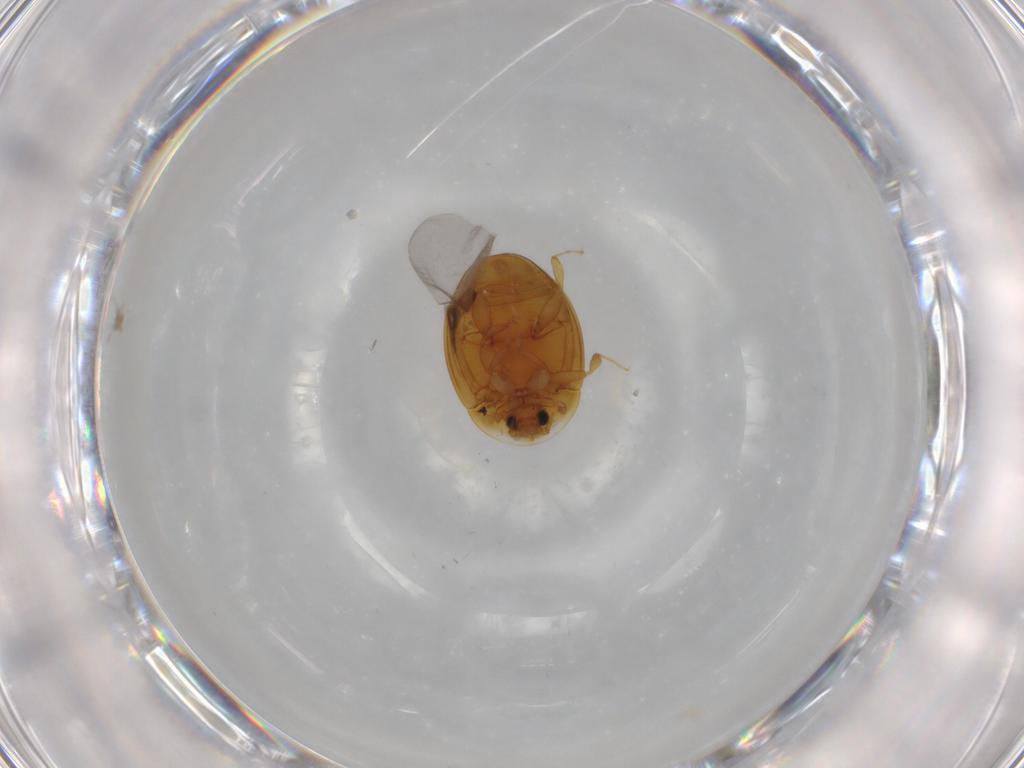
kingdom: Animalia
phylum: Arthropoda
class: Insecta
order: Coleoptera
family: Corylophidae
